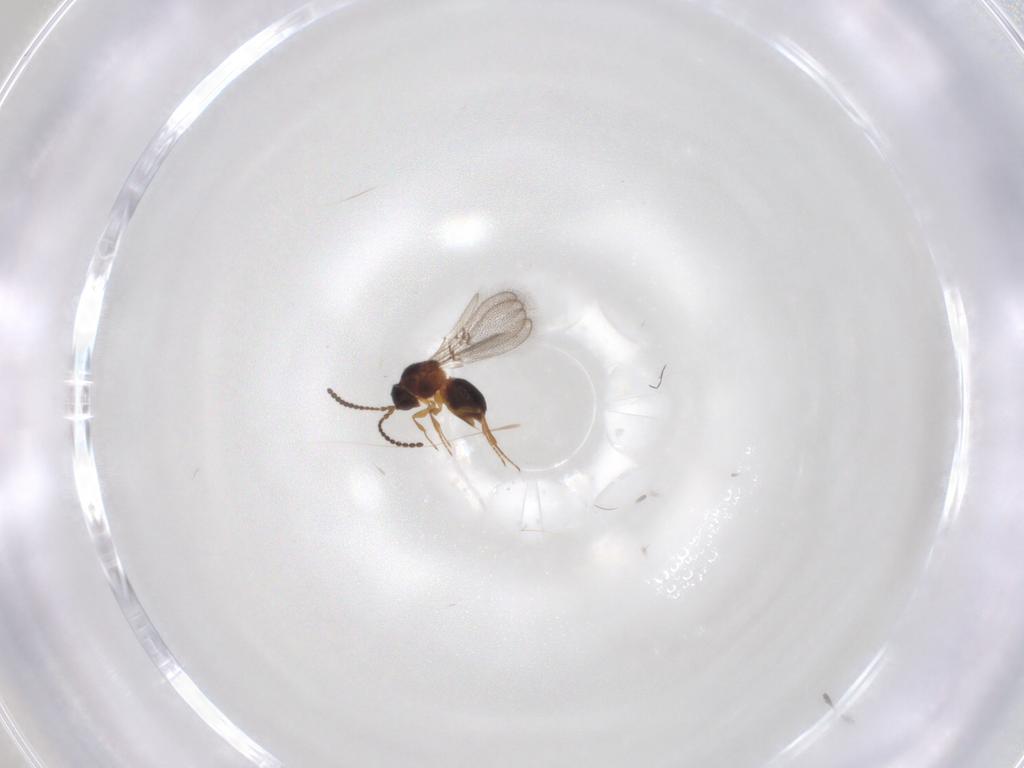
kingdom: Animalia
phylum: Arthropoda
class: Insecta
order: Hymenoptera
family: Figitidae
